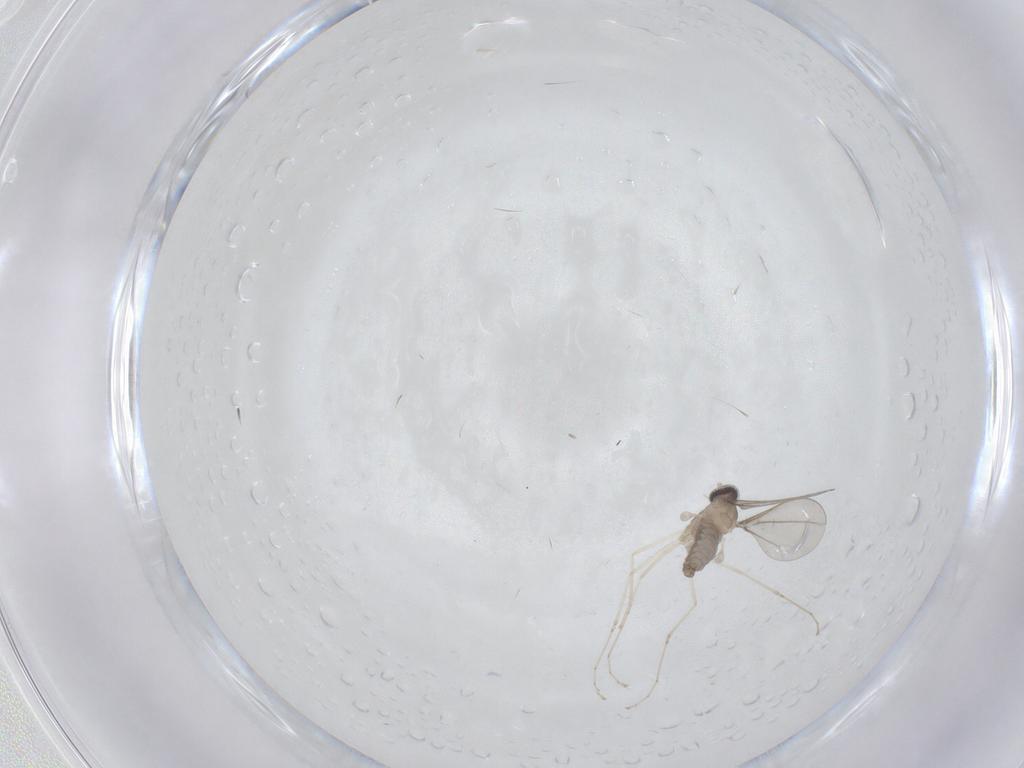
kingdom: Animalia
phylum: Arthropoda
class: Insecta
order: Diptera
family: Cecidomyiidae
